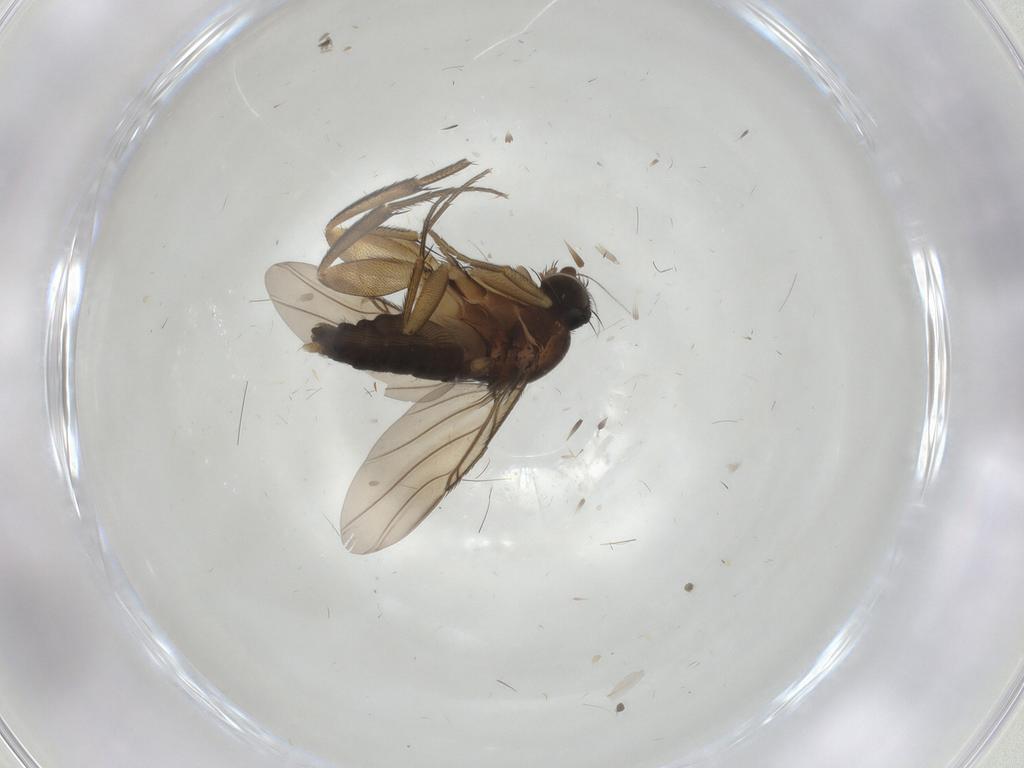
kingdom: Animalia
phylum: Arthropoda
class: Insecta
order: Diptera
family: Phoridae
